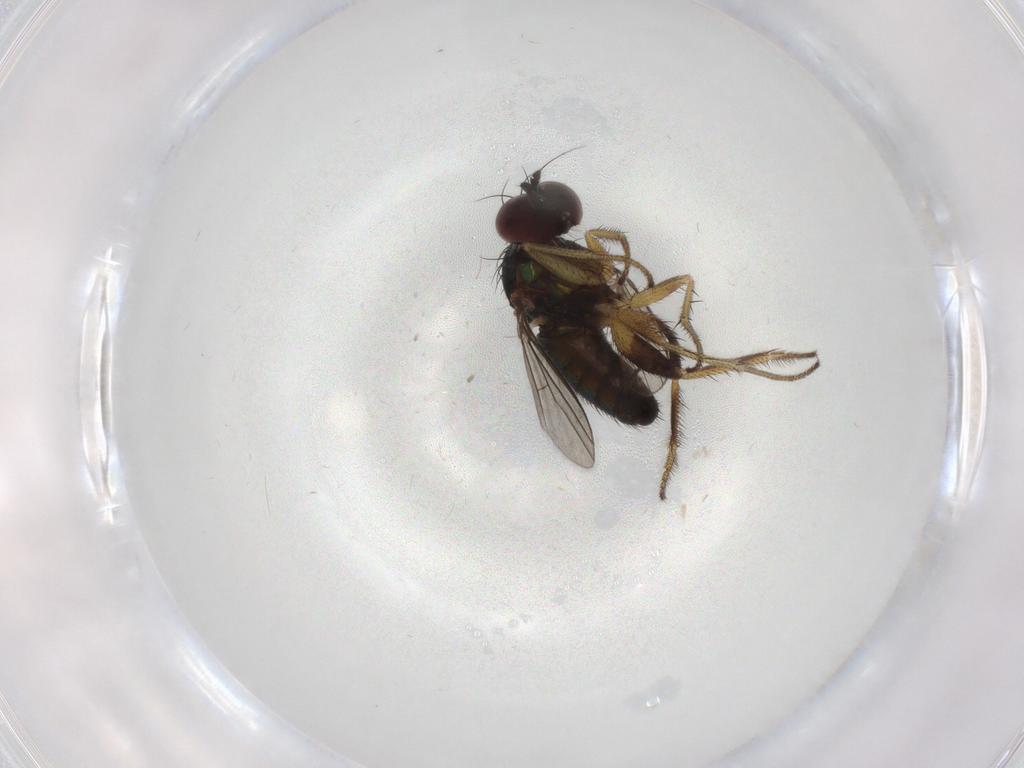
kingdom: Animalia
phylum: Arthropoda
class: Insecta
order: Diptera
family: Dolichopodidae
